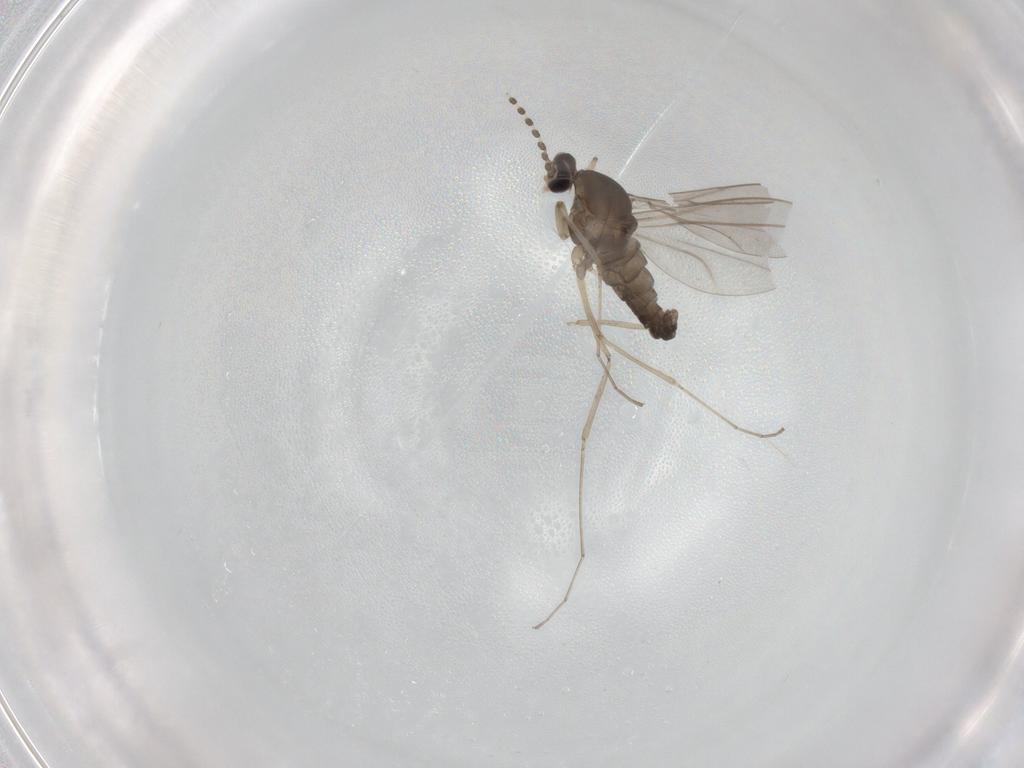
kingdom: Animalia
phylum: Arthropoda
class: Insecta
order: Diptera
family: Cecidomyiidae
